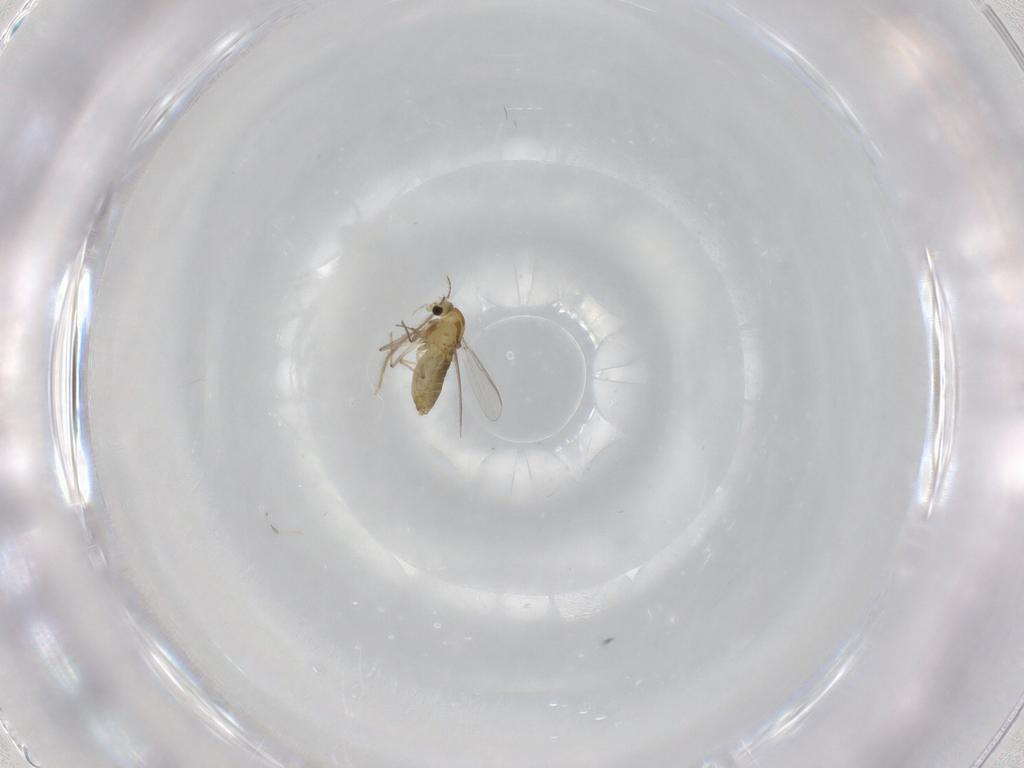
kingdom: Animalia
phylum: Arthropoda
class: Insecta
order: Diptera
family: Chironomidae
